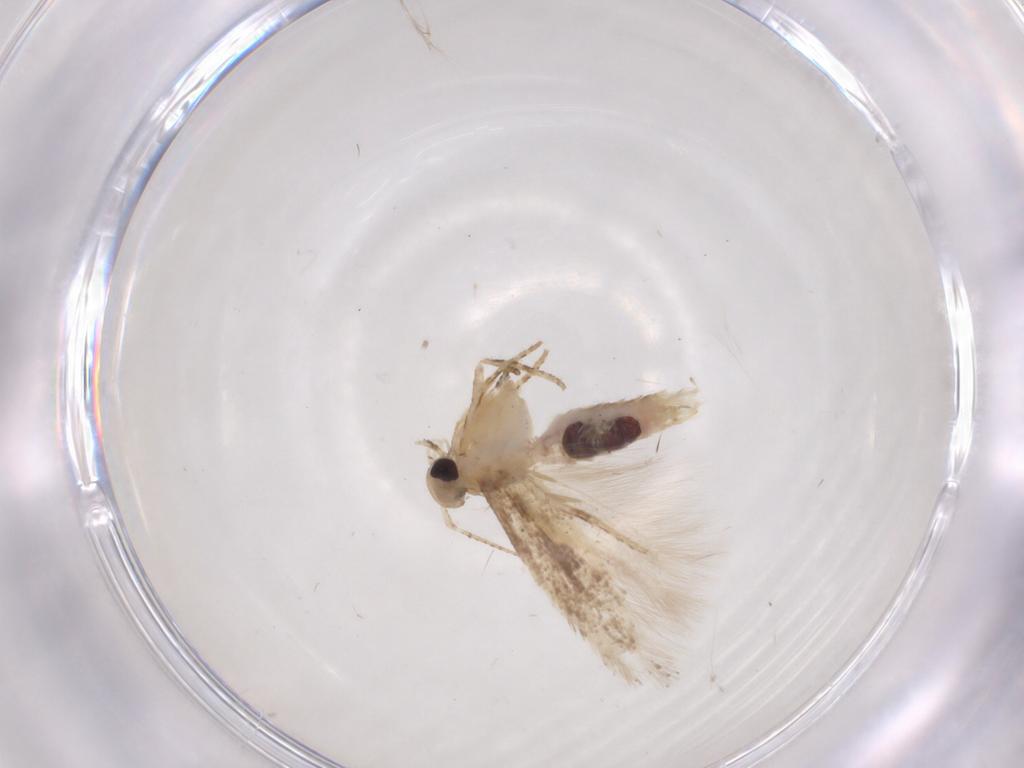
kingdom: Animalia
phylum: Arthropoda
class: Insecta
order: Lepidoptera
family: Gelechiidae
